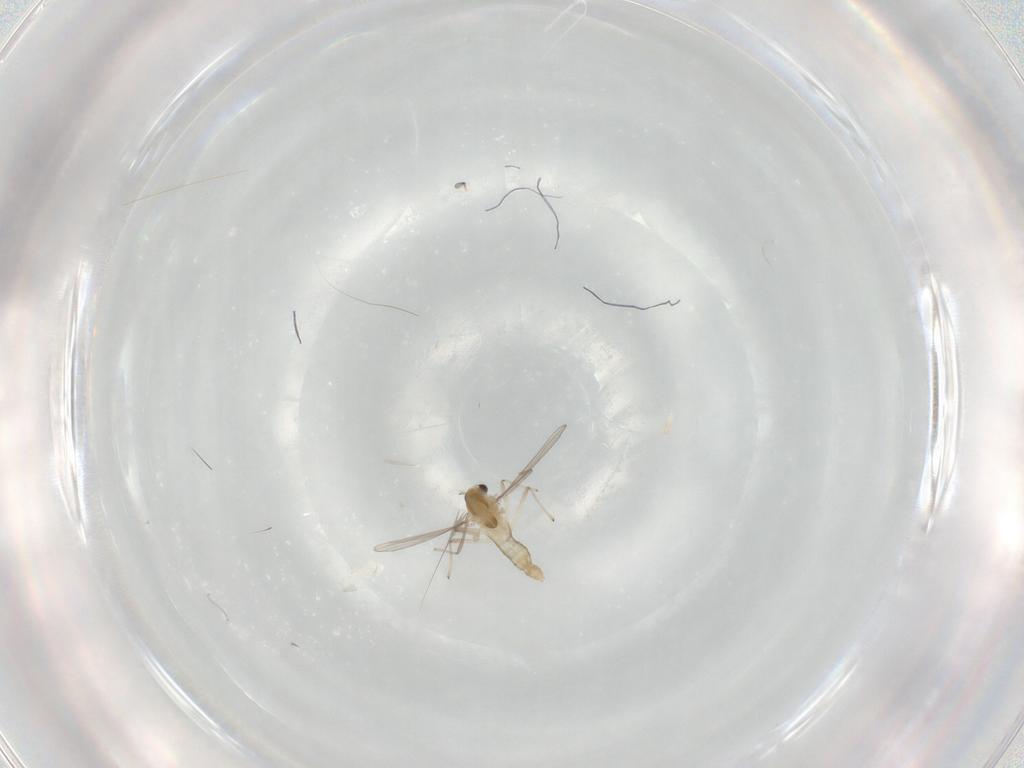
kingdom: Animalia
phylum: Arthropoda
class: Insecta
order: Diptera
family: Chironomidae
